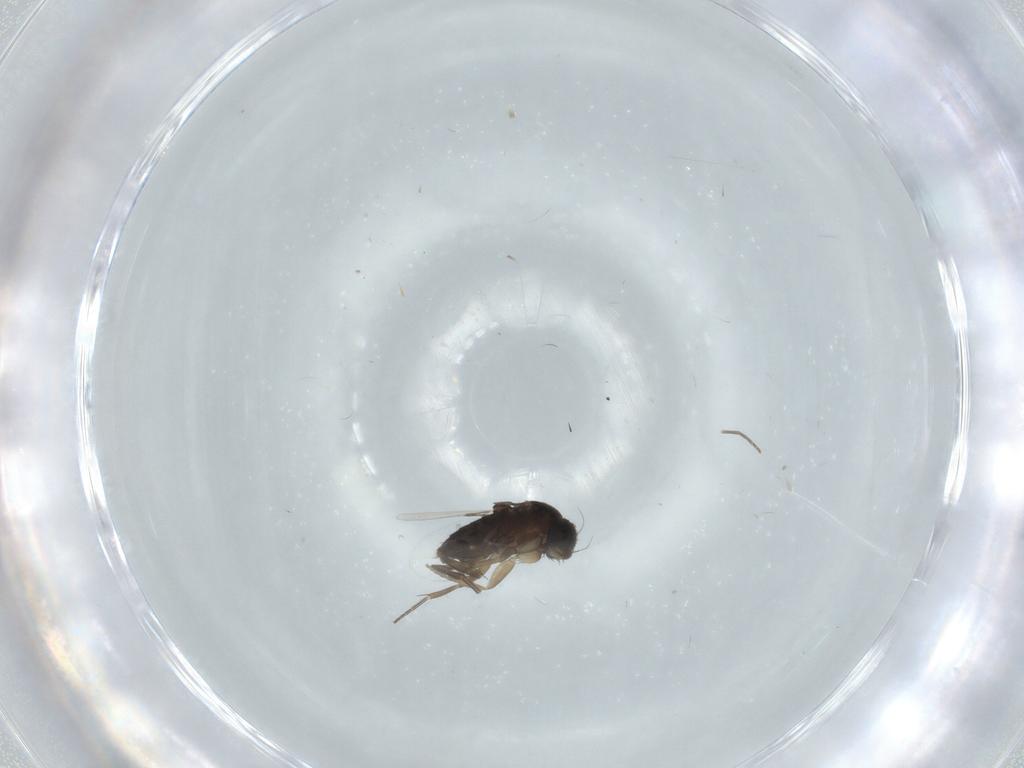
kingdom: Animalia
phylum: Arthropoda
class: Insecta
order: Diptera
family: Phoridae
